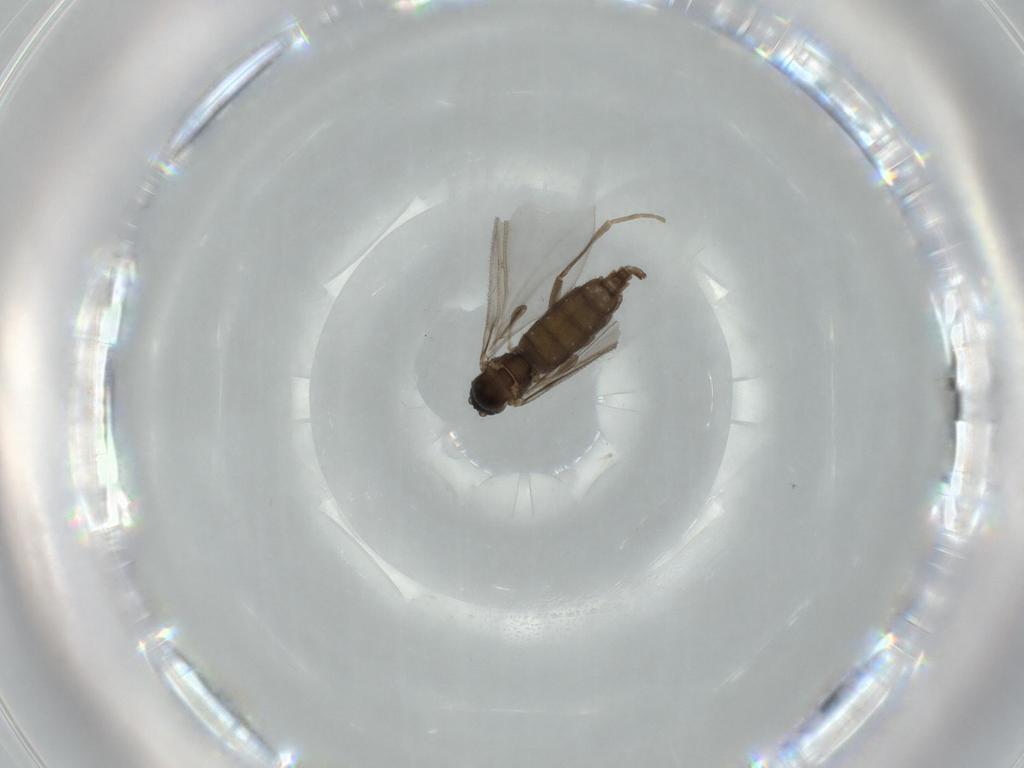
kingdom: Animalia
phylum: Arthropoda
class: Insecta
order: Diptera
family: Sciaridae
